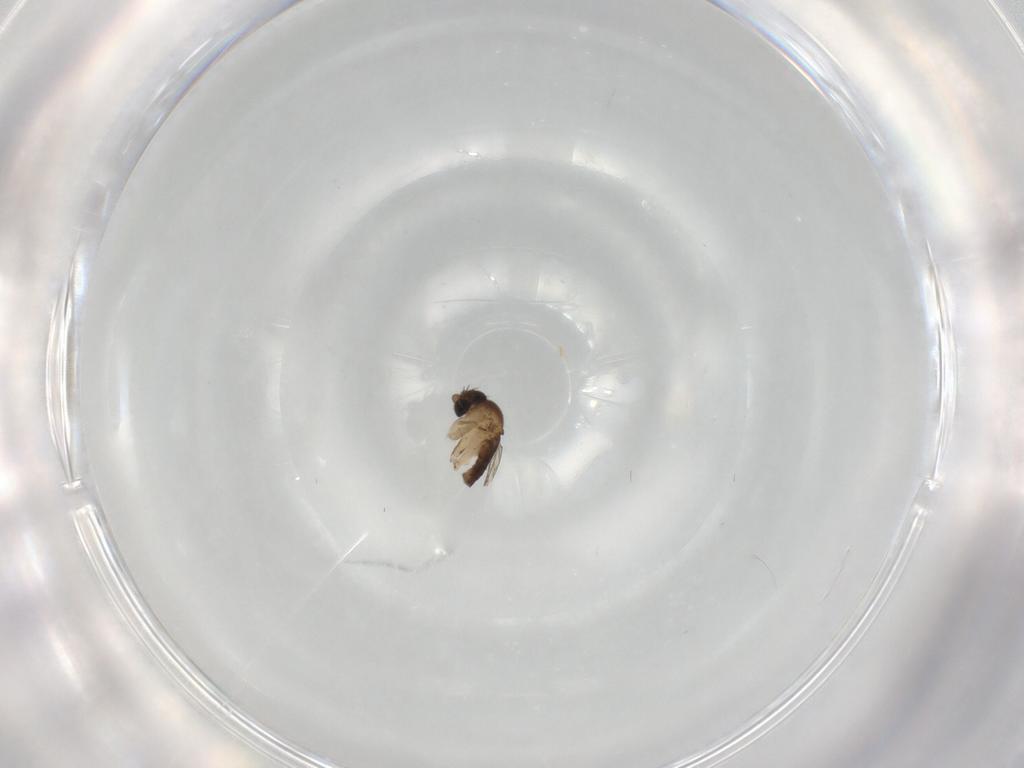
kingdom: Animalia
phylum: Arthropoda
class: Insecta
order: Diptera
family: Phoridae
